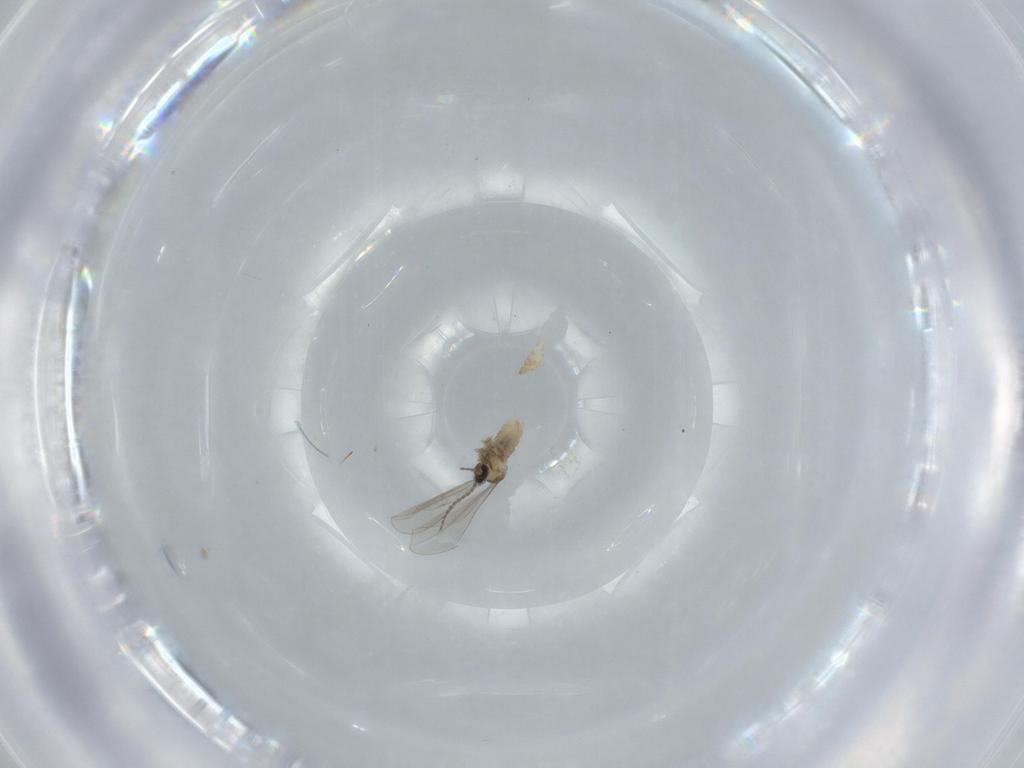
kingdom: Animalia
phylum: Arthropoda
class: Insecta
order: Diptera
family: Cecidomyiidae
